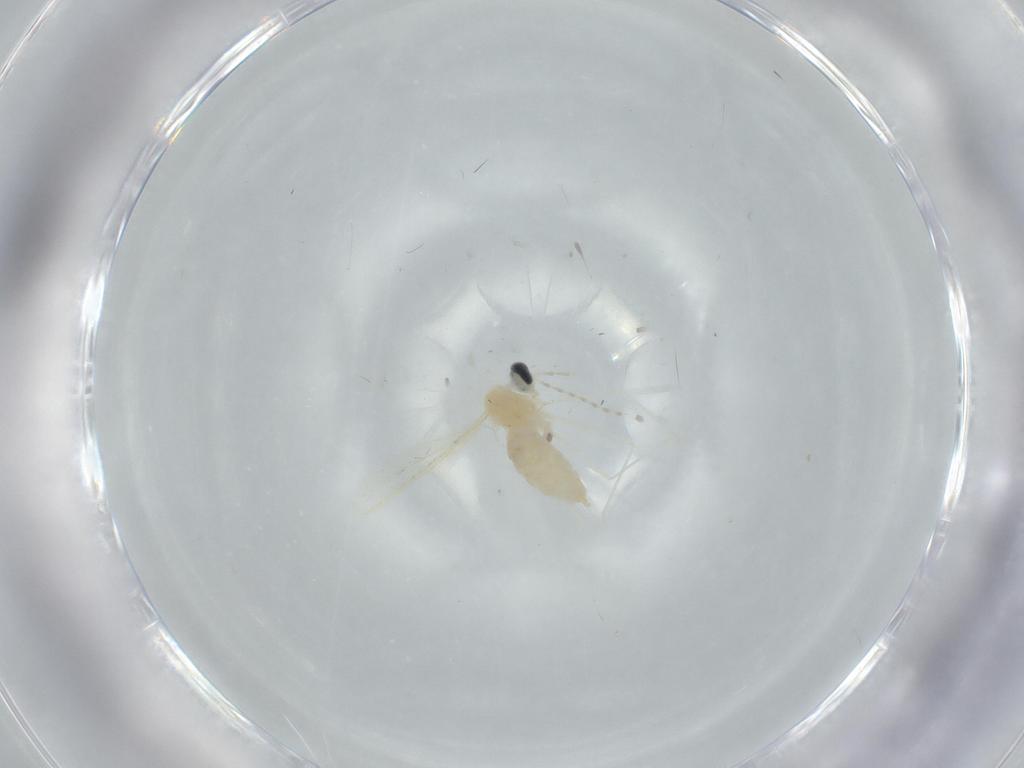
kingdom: Animalia
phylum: Arthropoda
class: Insecta
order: Diptera
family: Cecidomyiidae
